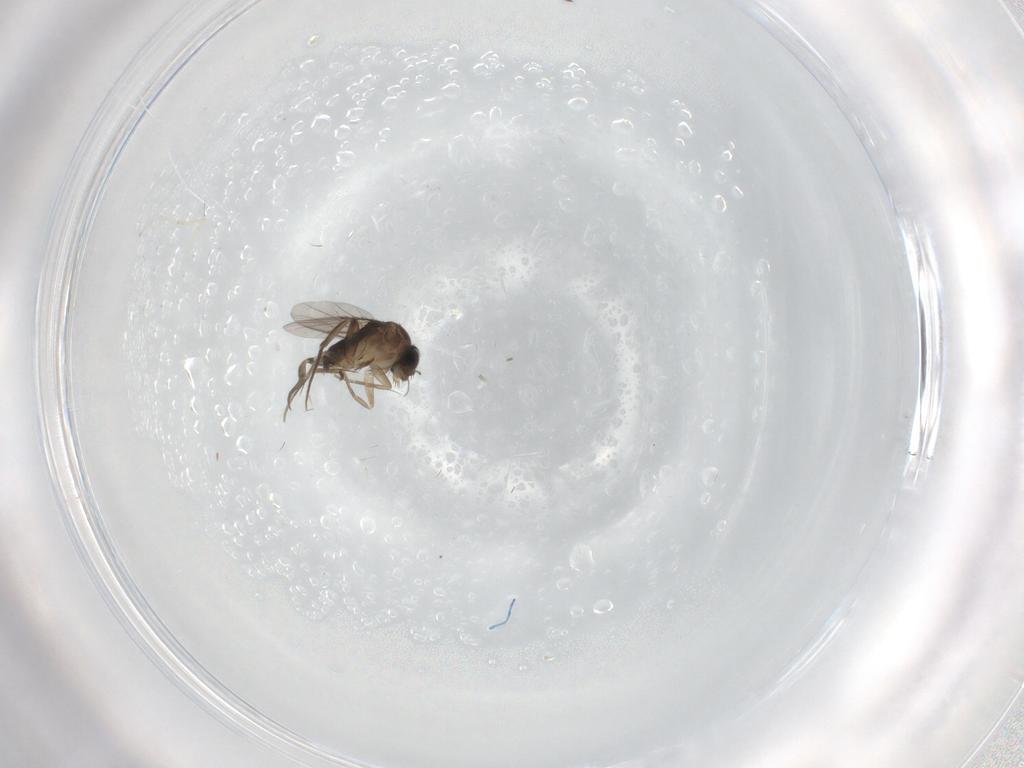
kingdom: Animalia
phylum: Arthropoda
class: Insecta
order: Diptera
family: Phoridae
